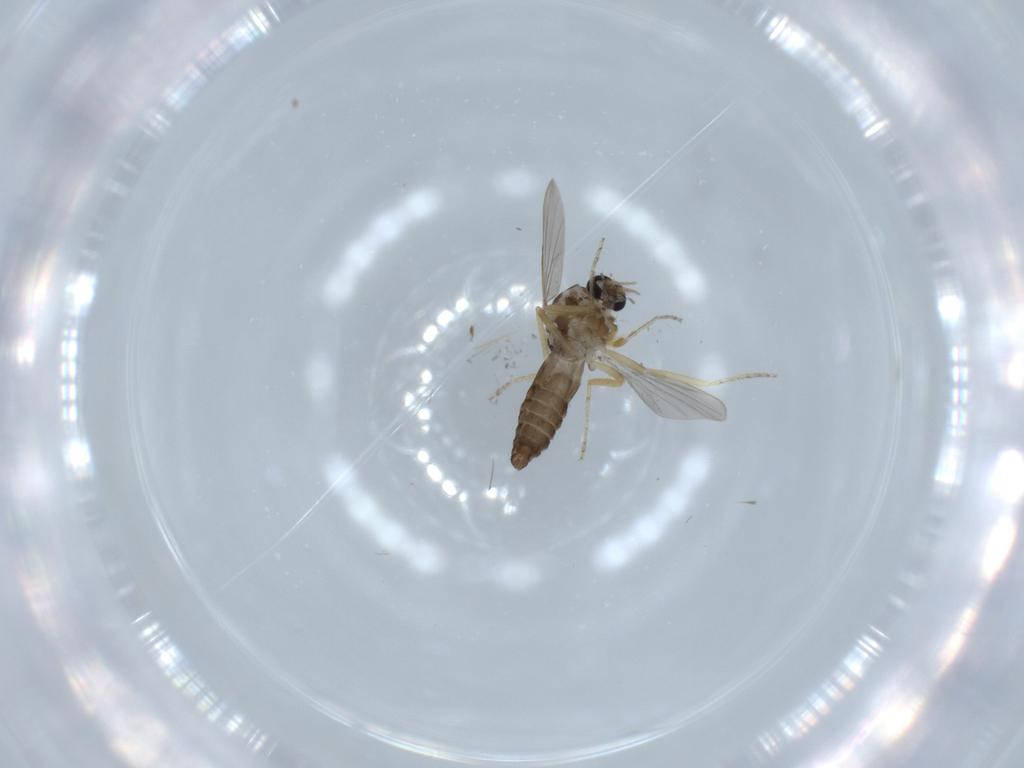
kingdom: Animalia
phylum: Arthropoda
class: Insecta
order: Diptera
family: Ceratopogonidae
